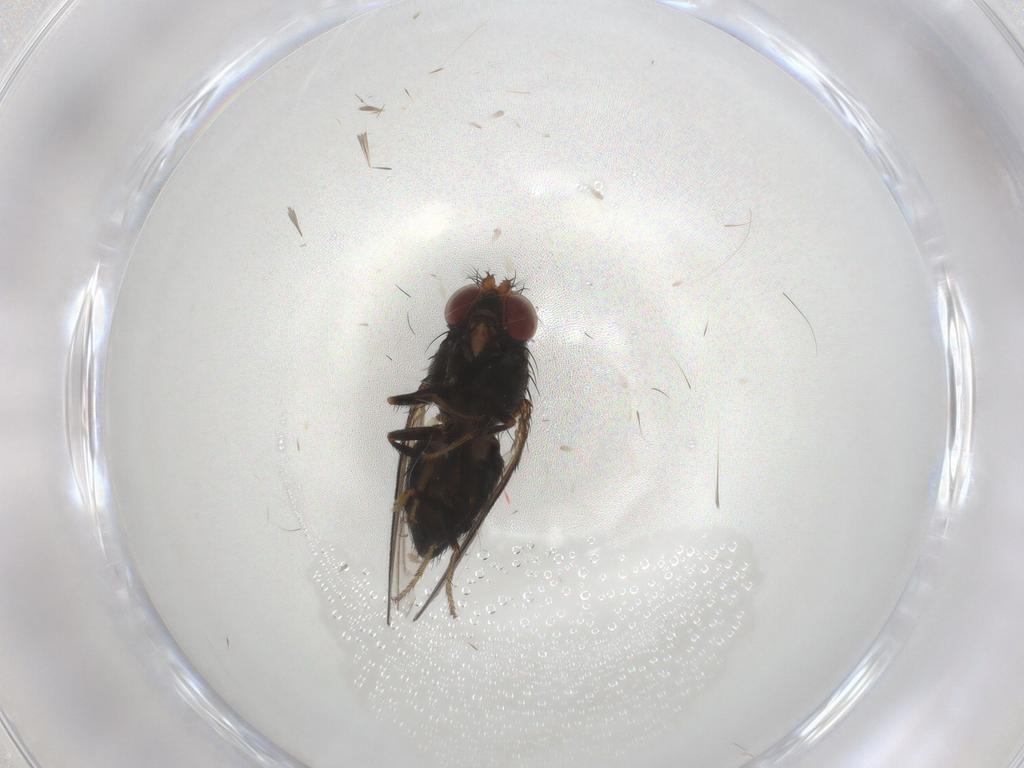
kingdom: Animalia
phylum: Arthropoda
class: Insecta
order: Diptera
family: Ephydridae
